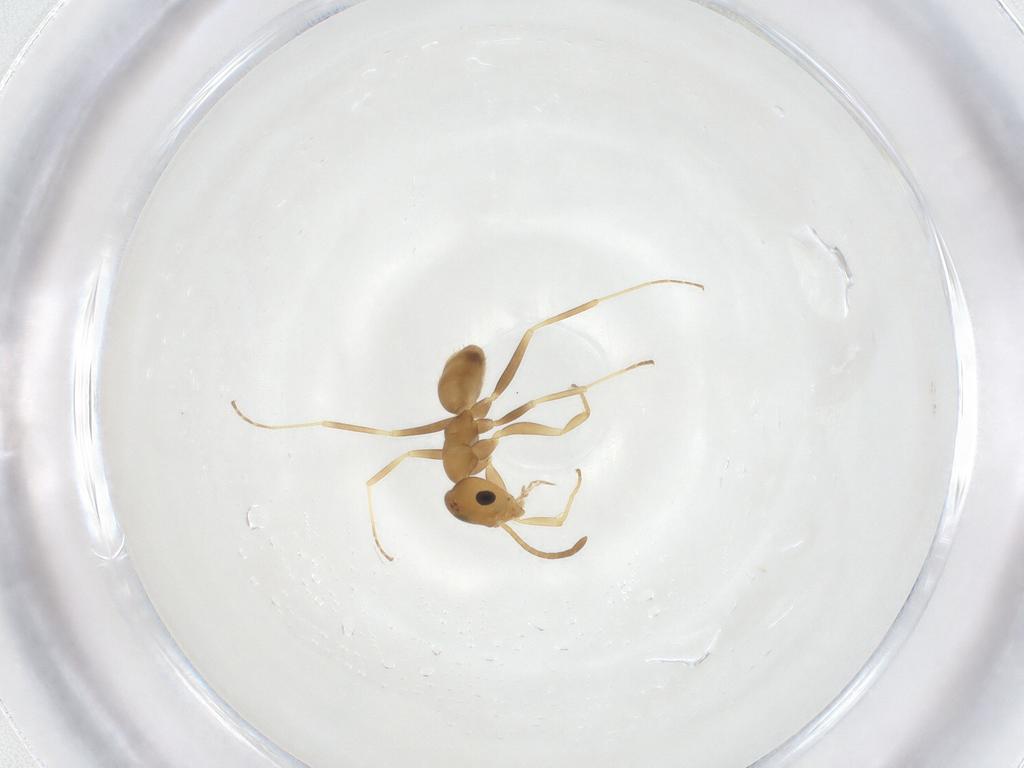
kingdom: Animalia
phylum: Arthropoda
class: Insecta
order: Hymenoptera
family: Formicidae
